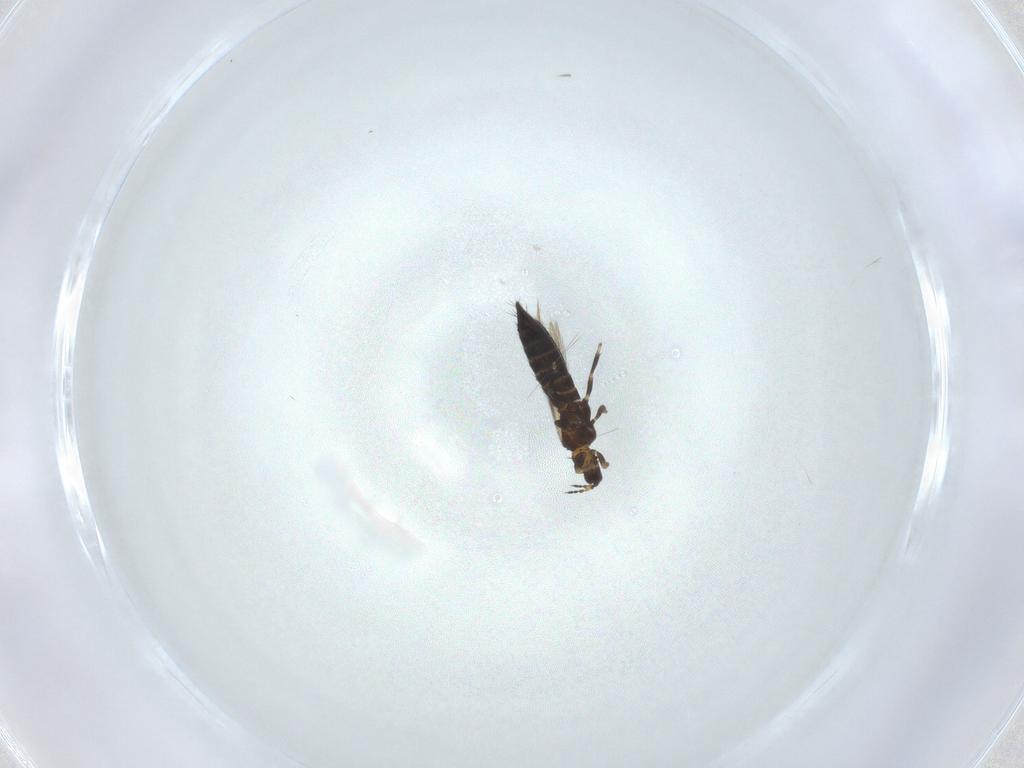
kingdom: Animalia
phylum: Arthropoda
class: Insecta
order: Thysanoptera
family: Thripidae
